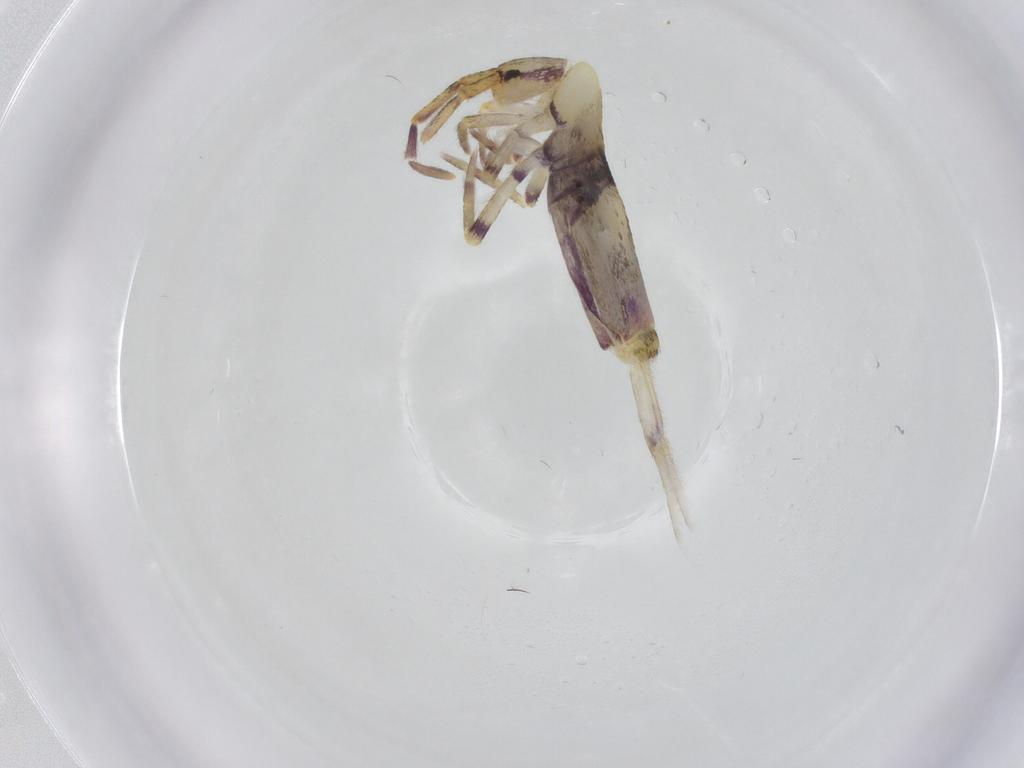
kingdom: Animalia
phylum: Arthropoda
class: Collembola
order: Entomobryomorpha
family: Entomobryidae
